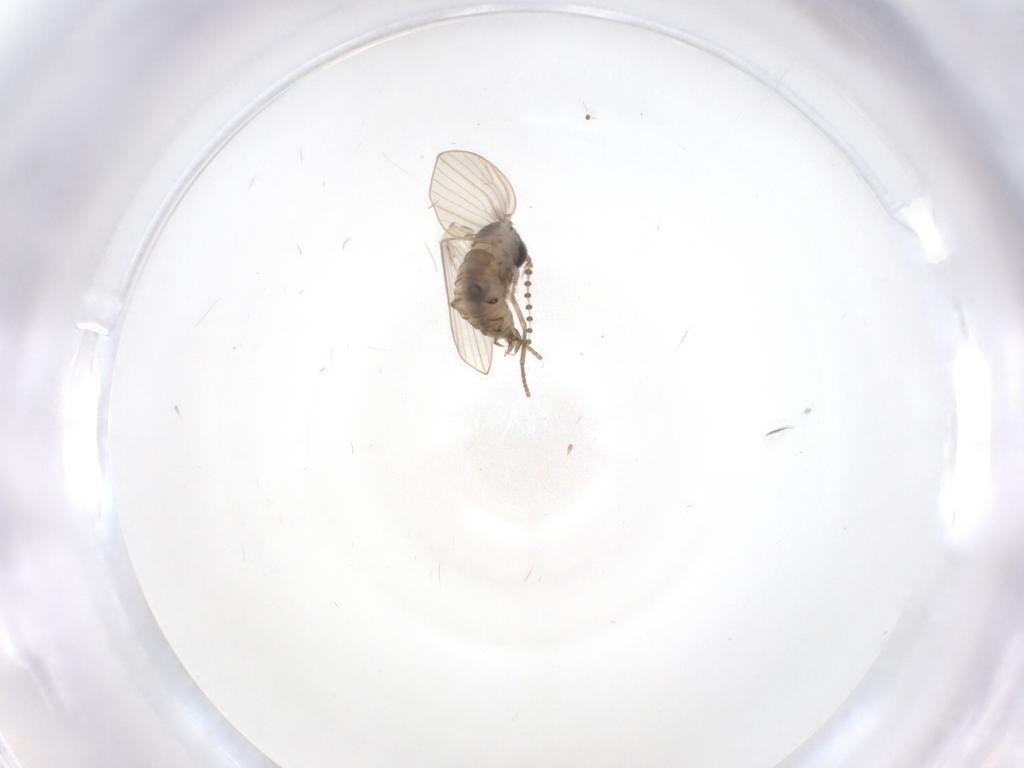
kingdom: Animalia
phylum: Arthropoda
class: Insecta
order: Diptera
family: Psychodidae
